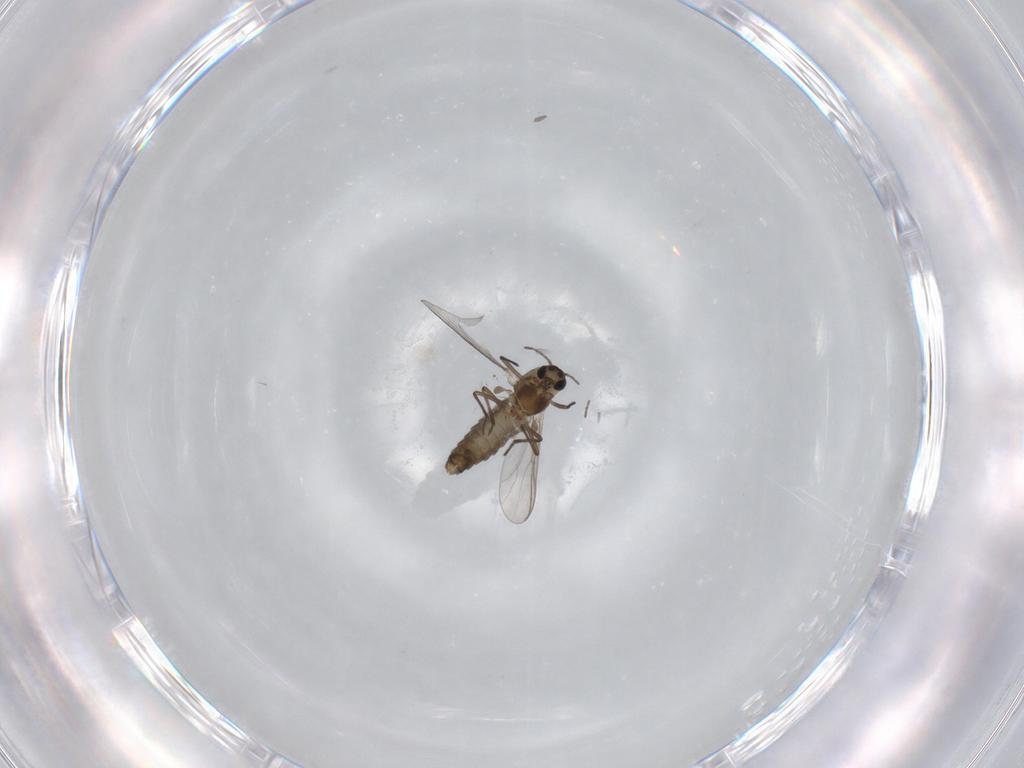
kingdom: Animalia
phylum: Arthropoda
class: Insecta
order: Diptera
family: Chironomidae
